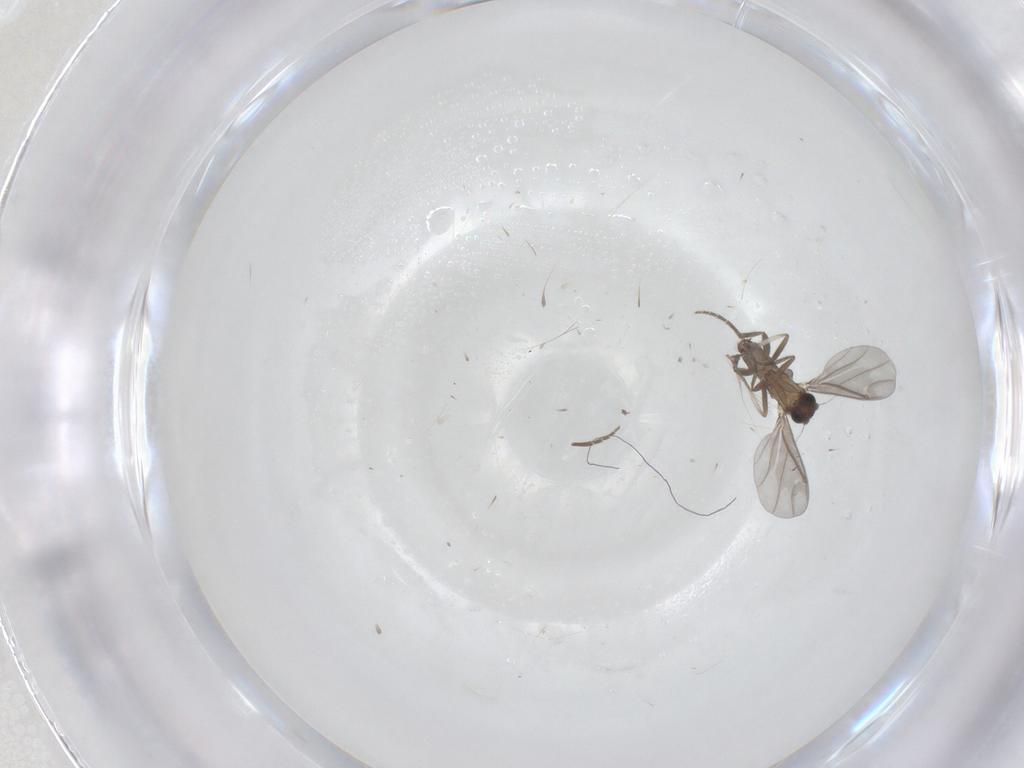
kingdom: Animalia
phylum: Arthropoda
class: Insecta
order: Diptera
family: Phoridae
